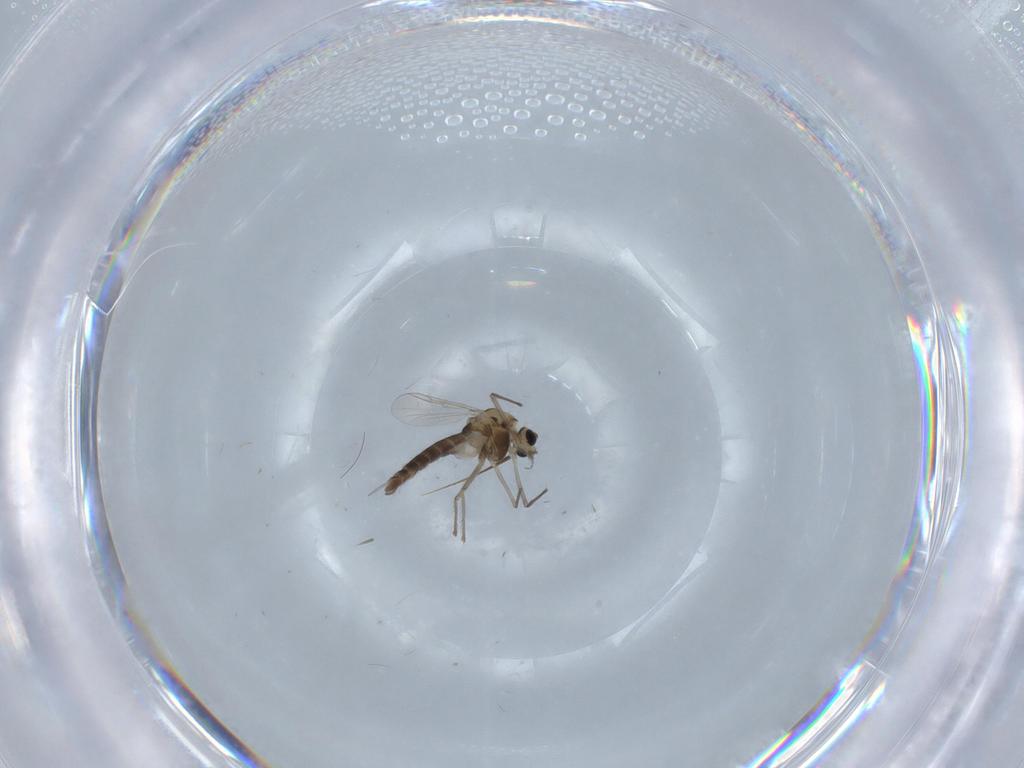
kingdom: Animalia
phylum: Arthropoda
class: Insecta
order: Diptera
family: Chironomidae
